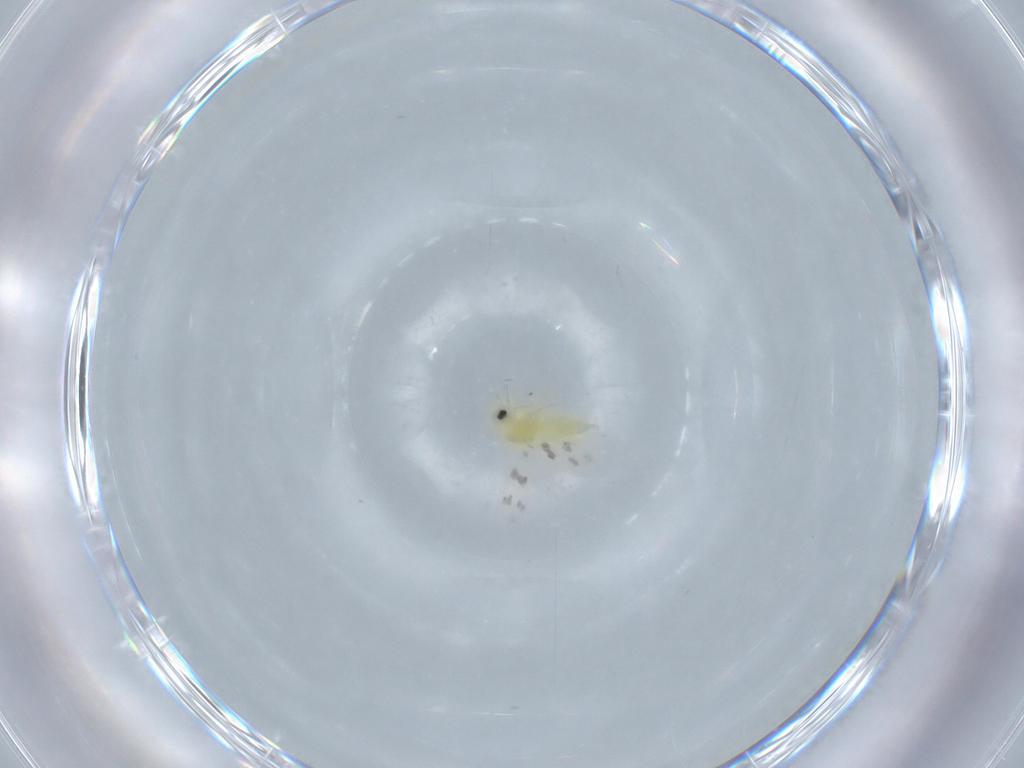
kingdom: Animalia
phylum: Arthropoda
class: Insecta
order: Hemiptera
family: Aleyrodidae
